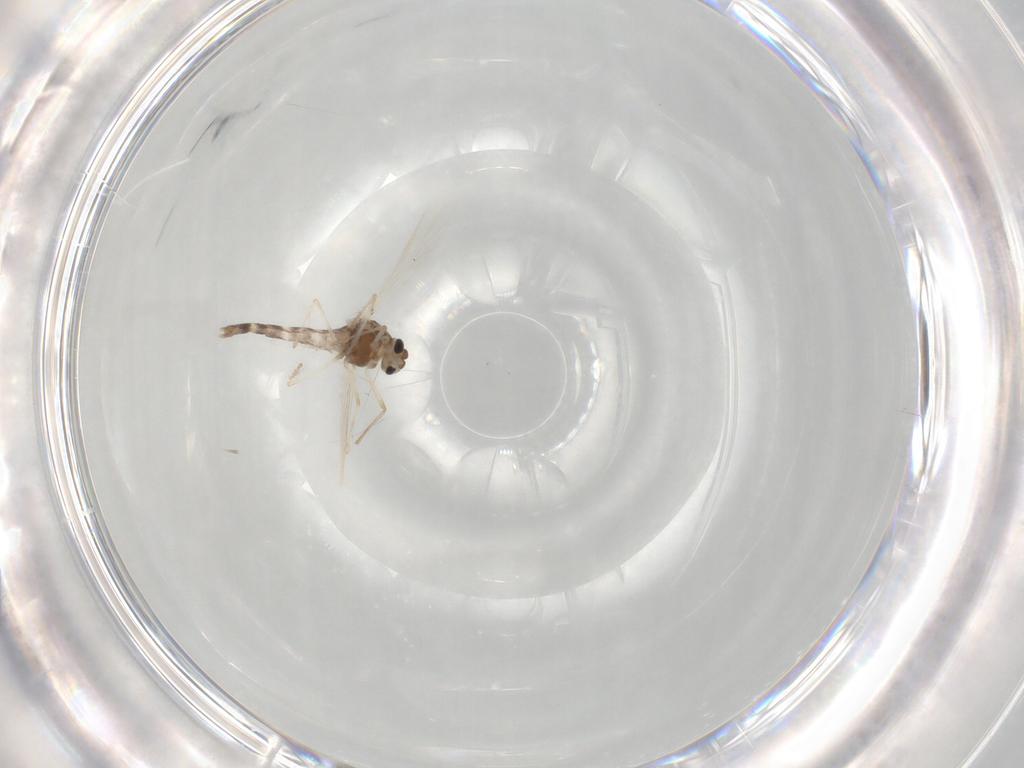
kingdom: Animalia
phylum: Arthropoda
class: Insecta
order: Diptera
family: Chironomidae
